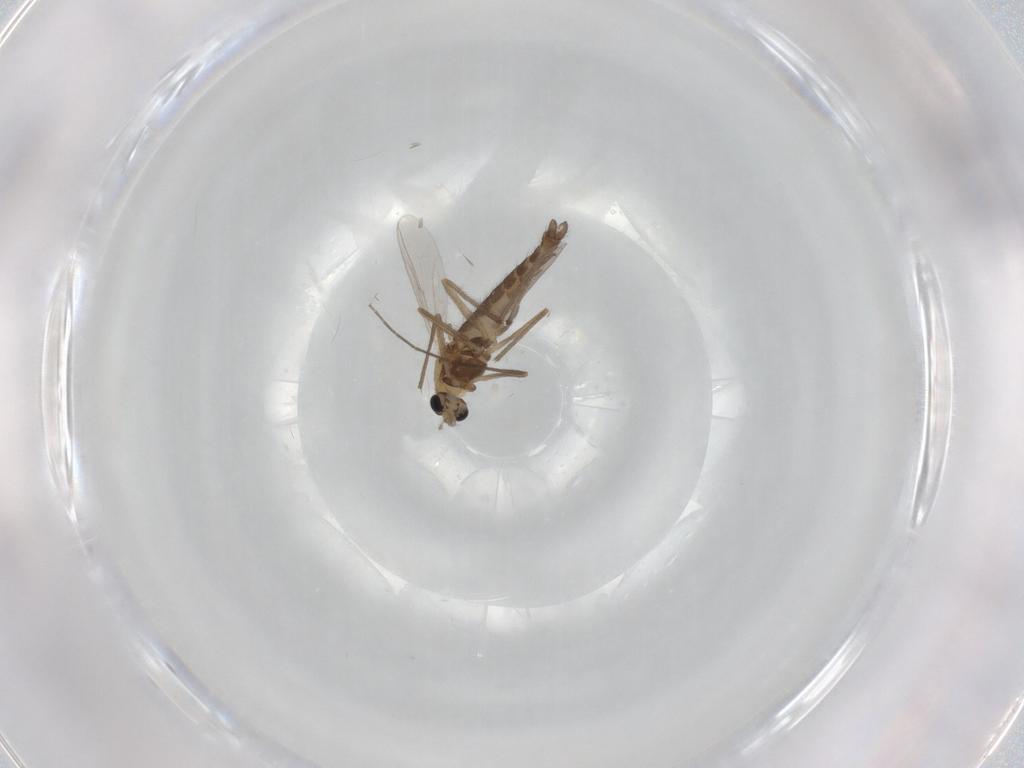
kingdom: Animalia
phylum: Arthropoda
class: Insecta
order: Diptera
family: Chironomidae
